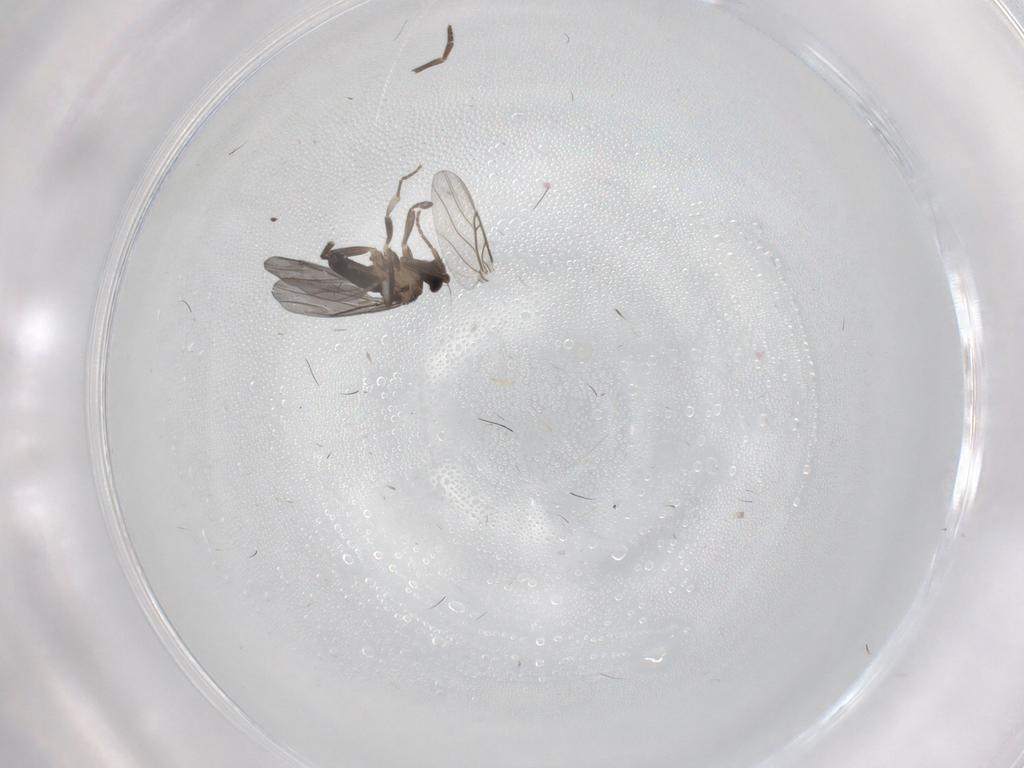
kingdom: Animalia
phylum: Arthropoda
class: Insecta
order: Diptera
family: Phoridae
